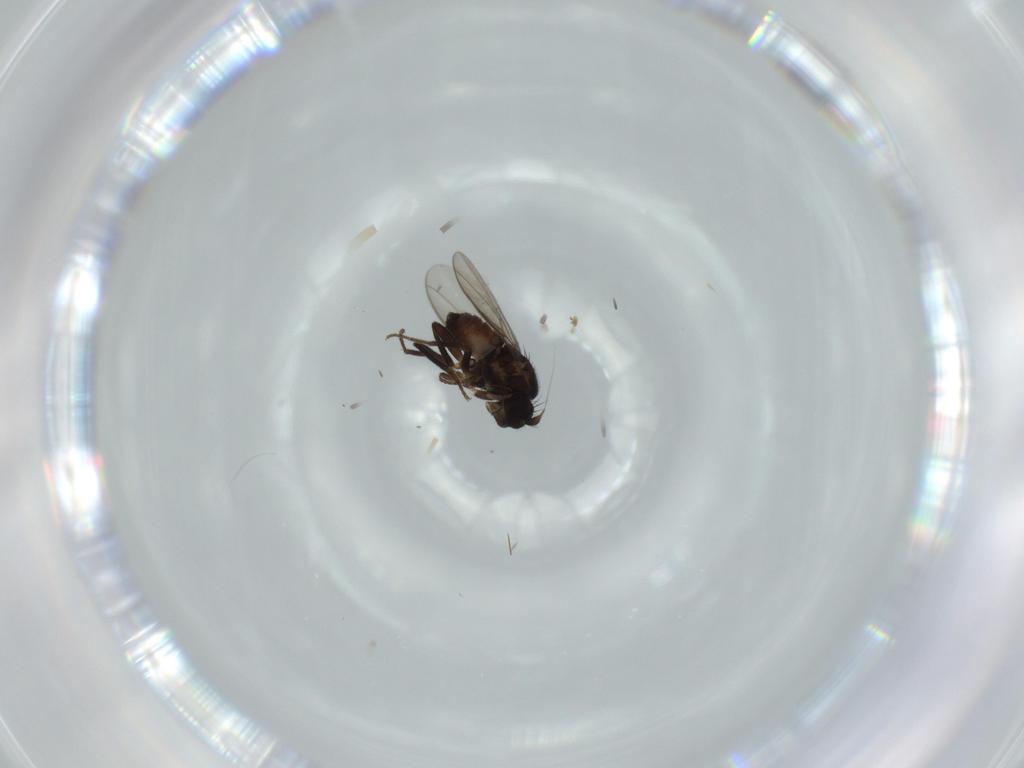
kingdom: Animalia
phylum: Arthropoda
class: Insecta
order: Diptera
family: Sphaeroceridae
